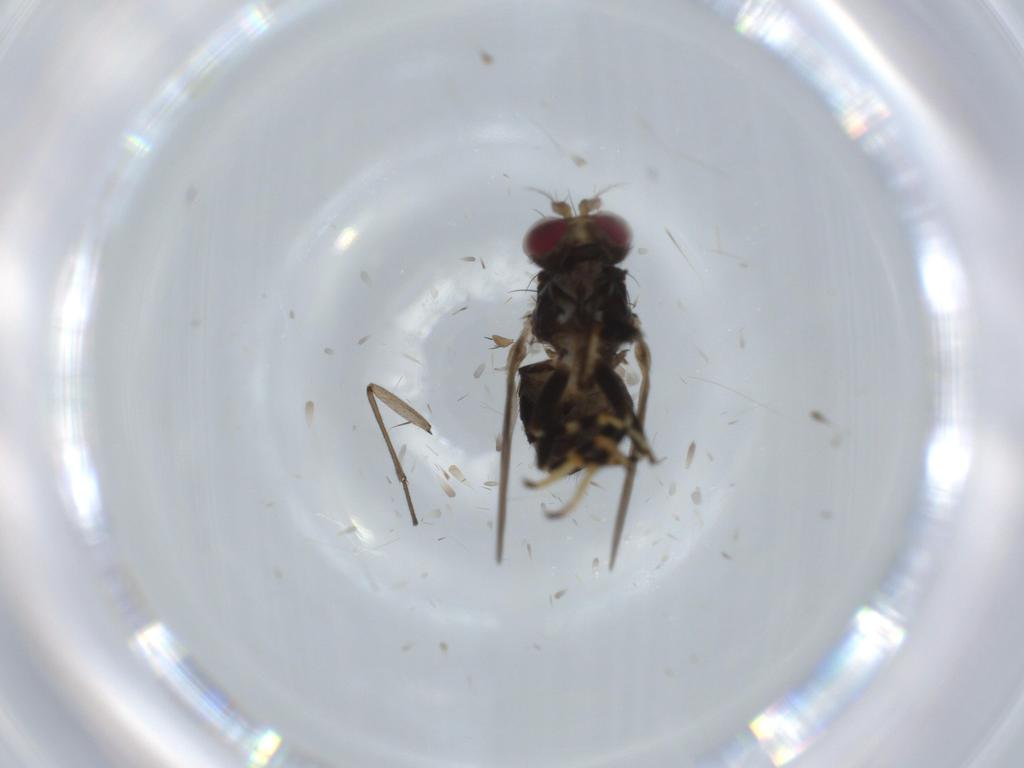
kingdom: Animalia
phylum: Arthropoda
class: Insecta
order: Diptera
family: Ephydridae
